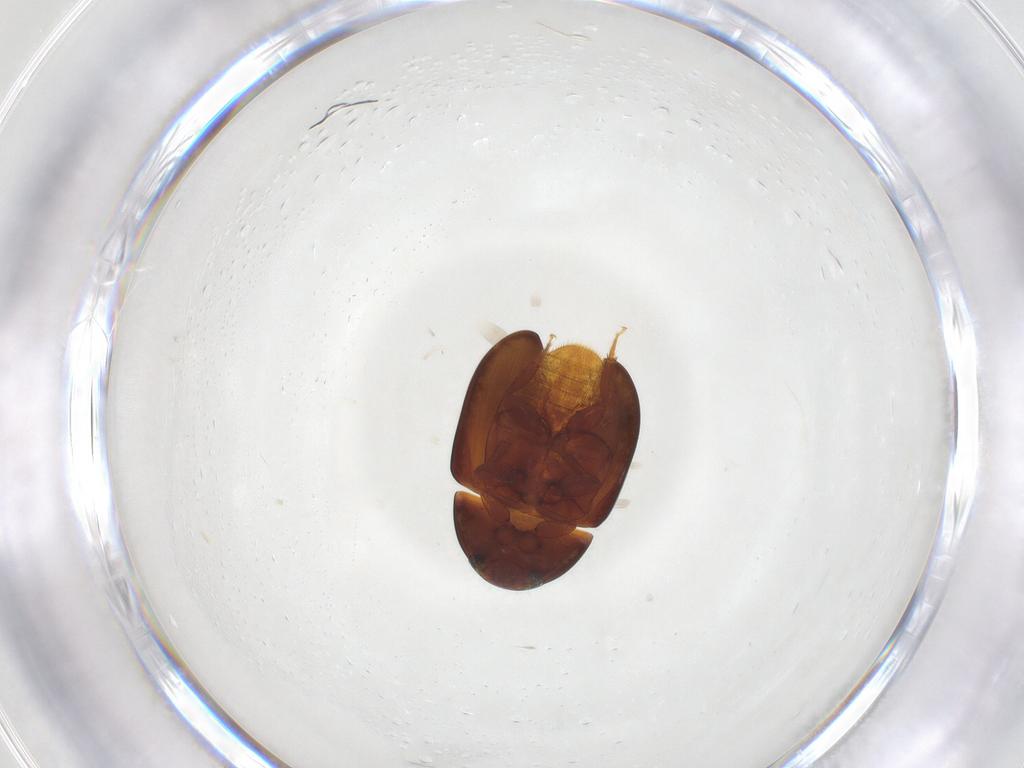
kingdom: Animalia
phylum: Arthropoda
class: Insecta
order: Coleoptera
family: Phalacridae
